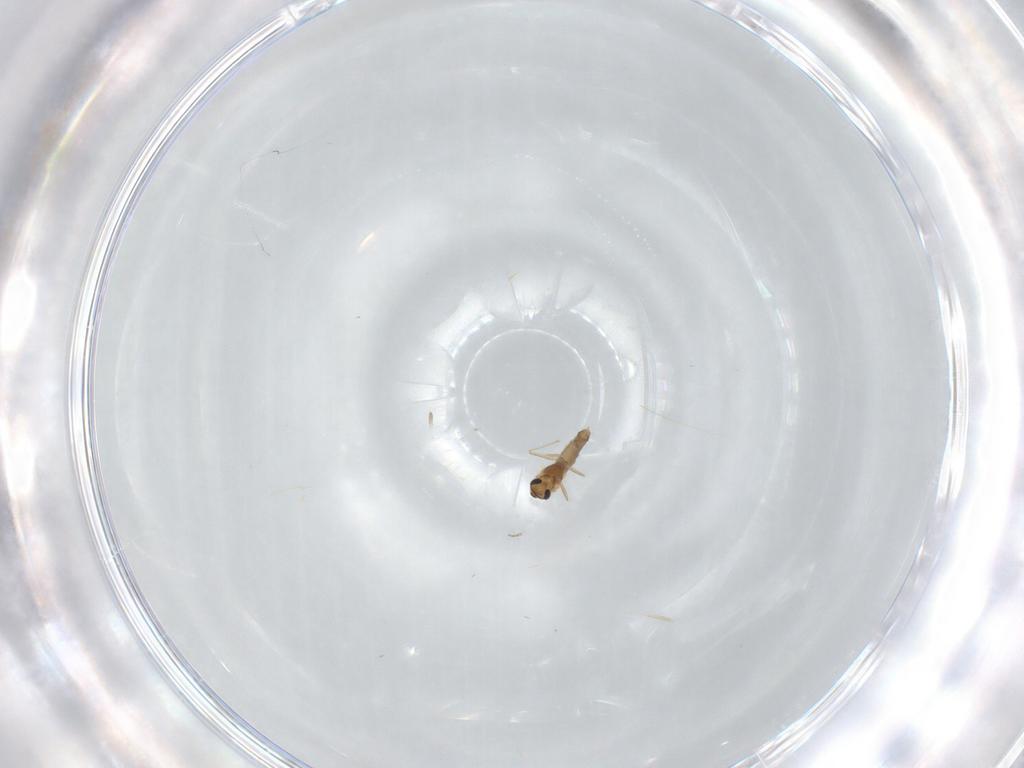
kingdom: Animalia
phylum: Arthropoda
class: Insecta
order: Diptera
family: Chironomidae
